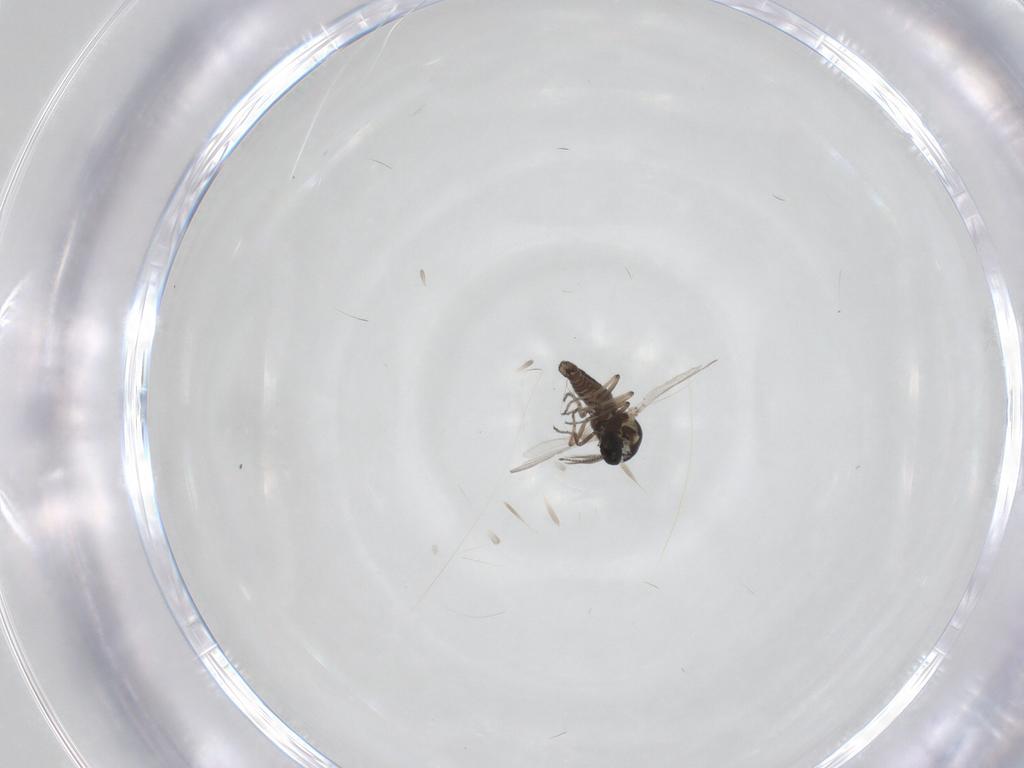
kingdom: Animalia
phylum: Arthropoda
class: Insecta
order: Diptera
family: Ceratopogonidae
